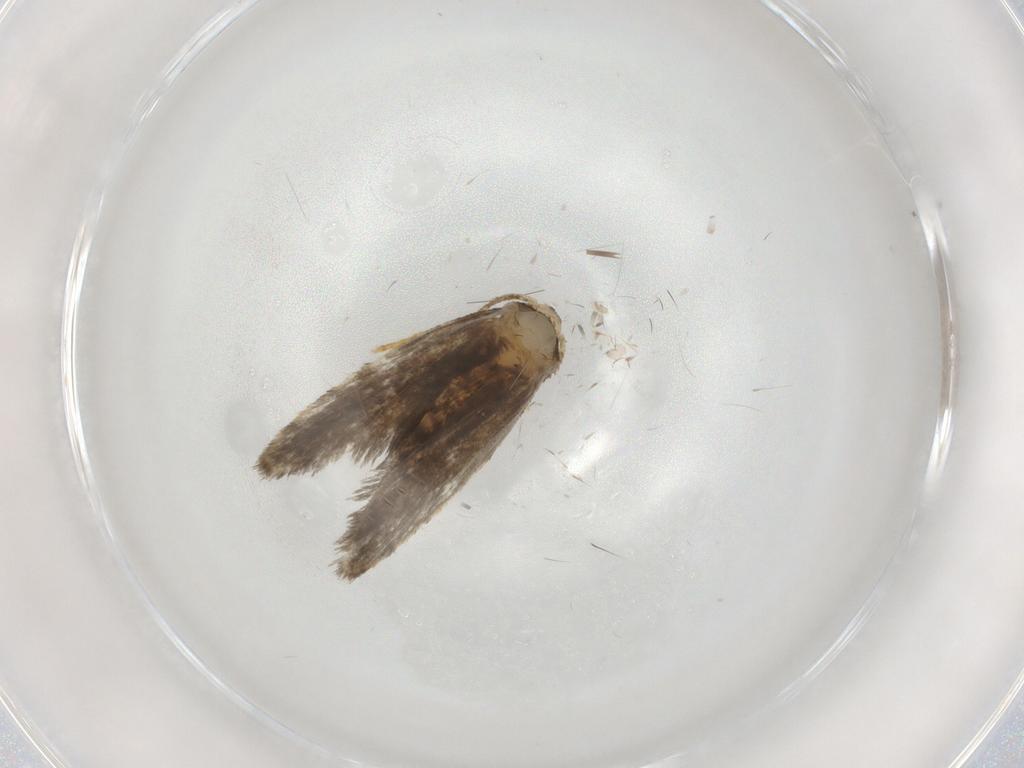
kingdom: Animalia
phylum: Arthropoda
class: Insecta
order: Lepidoptera
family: Psychidae
